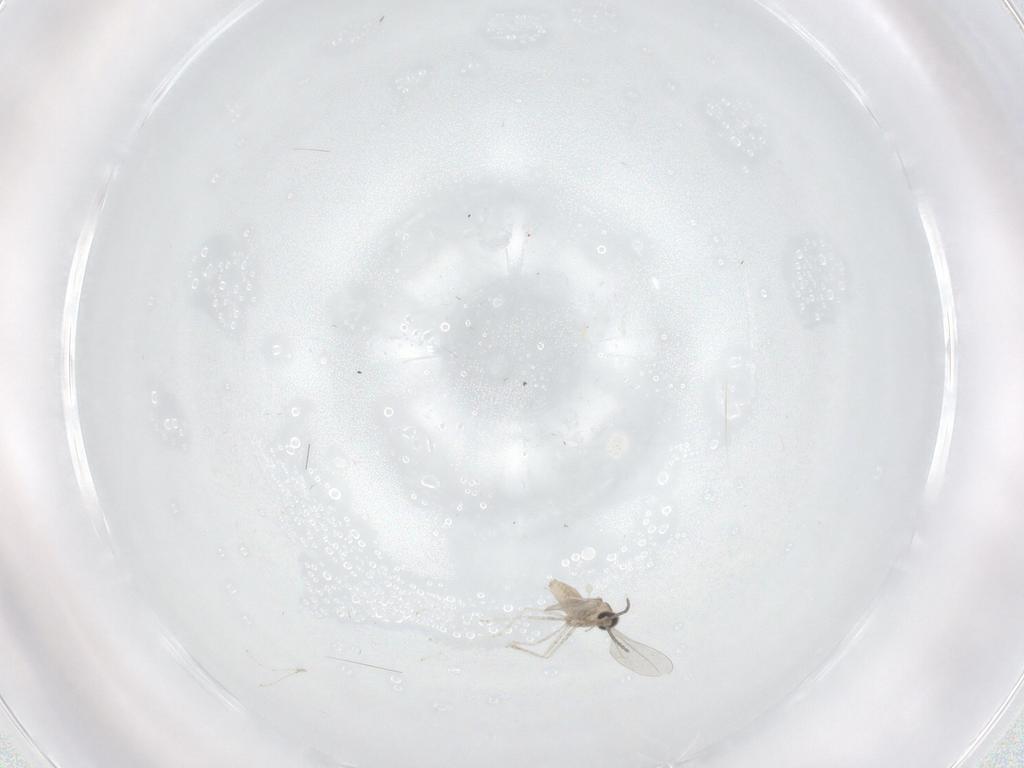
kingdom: Animalia
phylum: Arthropoda
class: Insecta
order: Diptera
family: Cecidomyiidae
